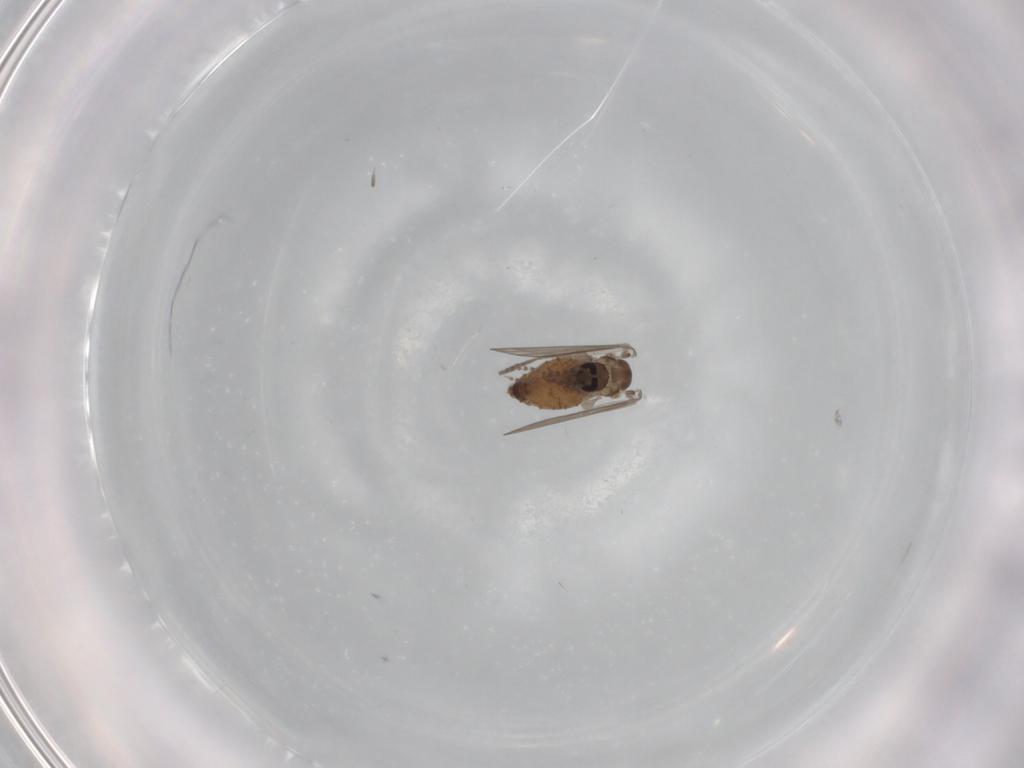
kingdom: Animalia
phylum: Arthropoda
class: Insecta
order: Diptera
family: Psychodidae
